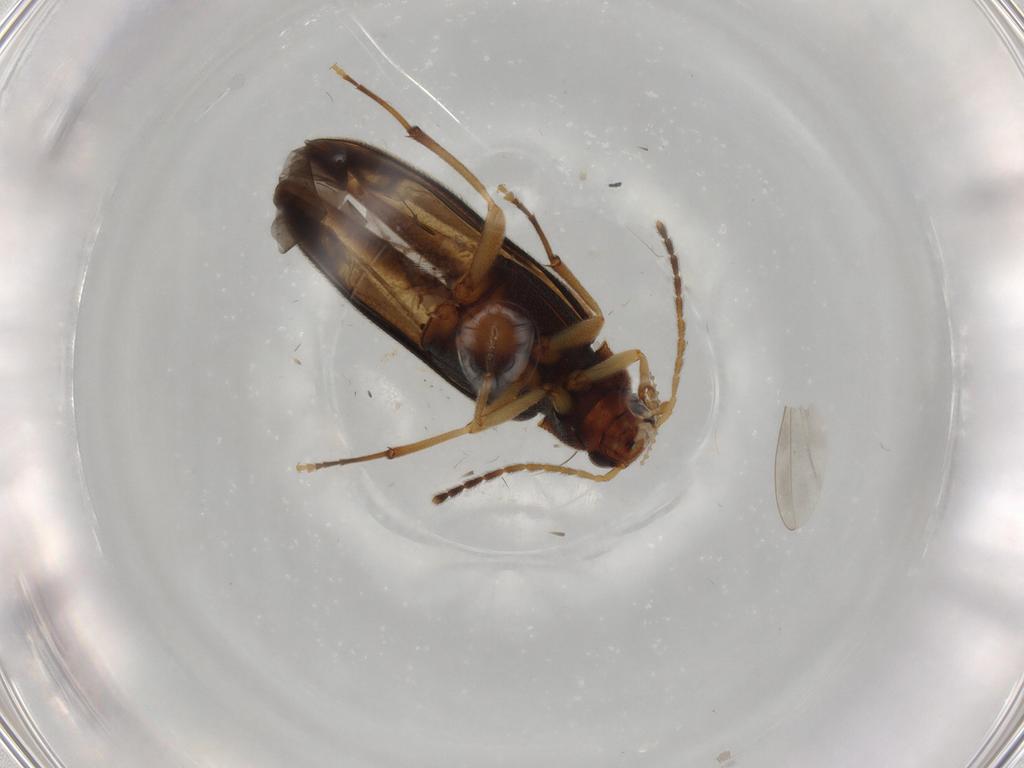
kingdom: Animalia
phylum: Arthropoda
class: Insecta
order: Coleoptera
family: Melandryidae
